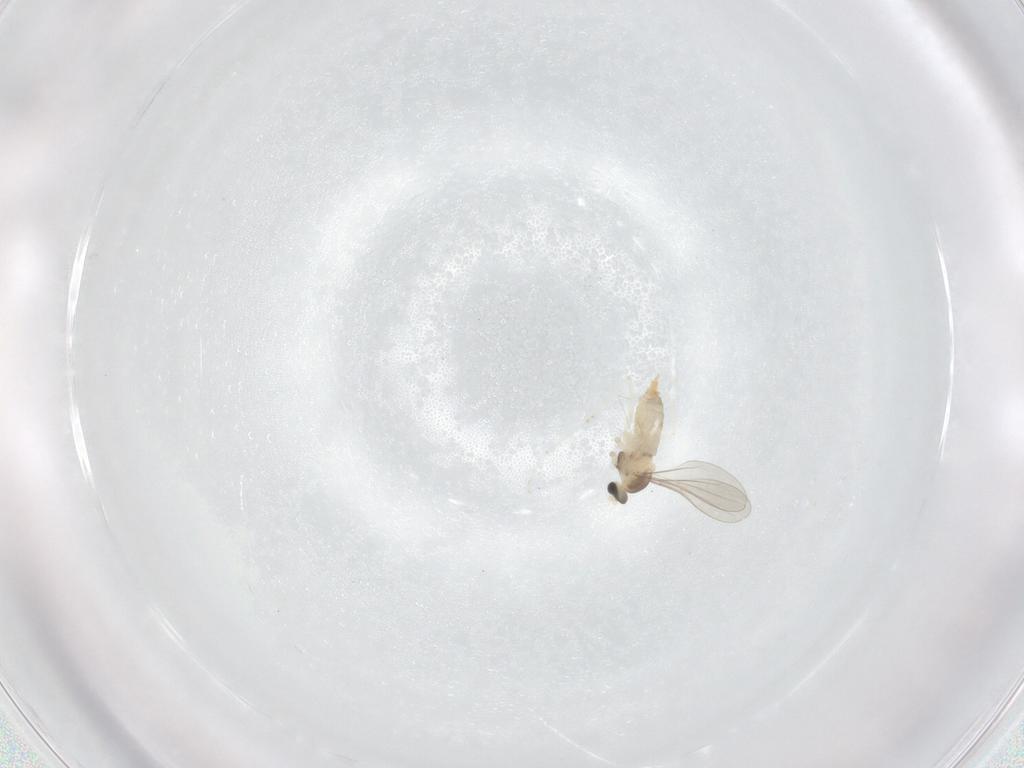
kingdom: Animalia
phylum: Arthropoda
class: Insecta
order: Diptera
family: Cecidomyiidae
